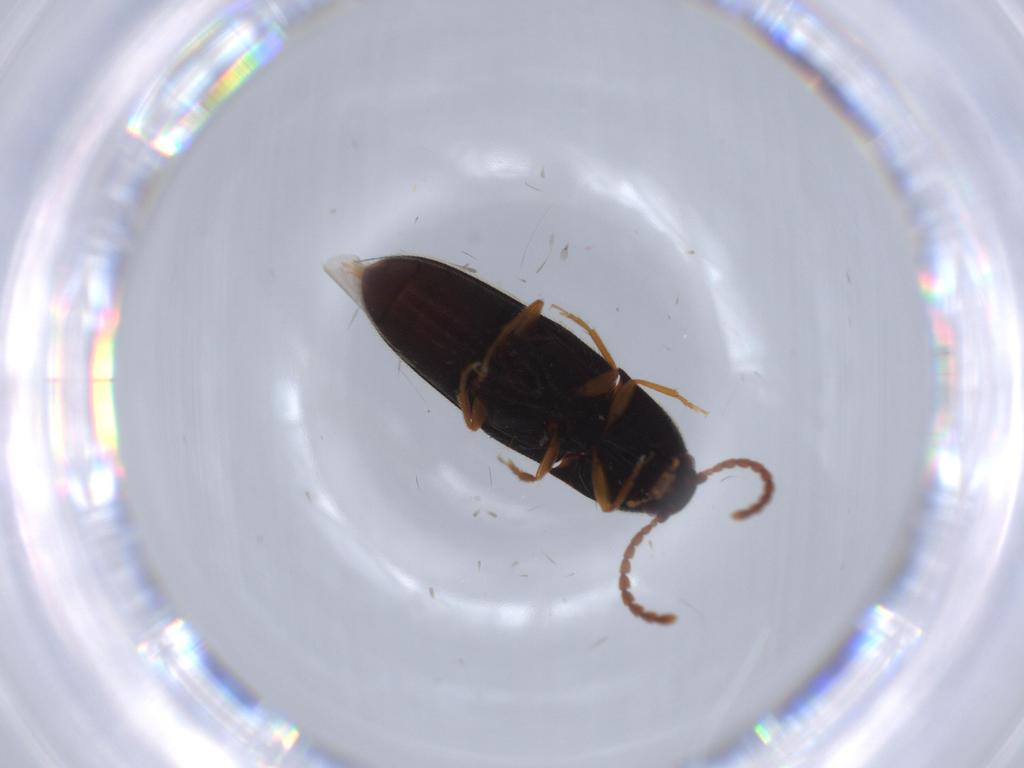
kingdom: Animalia
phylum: Arthropoda
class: Insecta
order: Coleoptera
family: Elateridae
